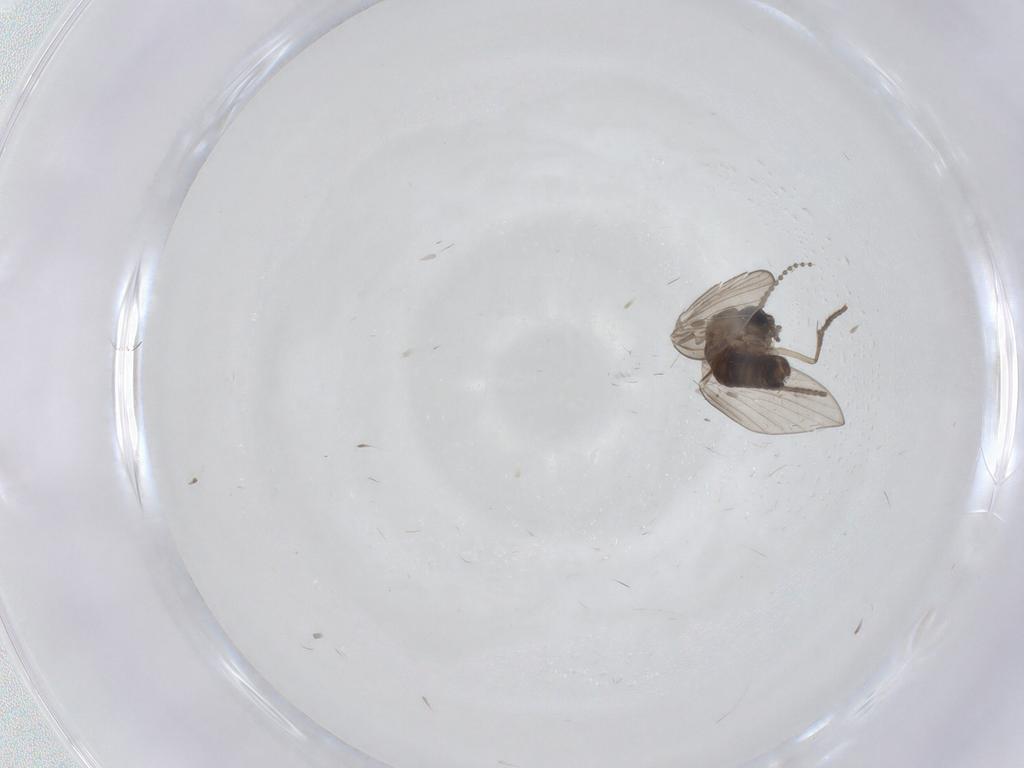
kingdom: Animalia
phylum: Arthropoda
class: Insecta
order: Diptera
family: Psychodidae
